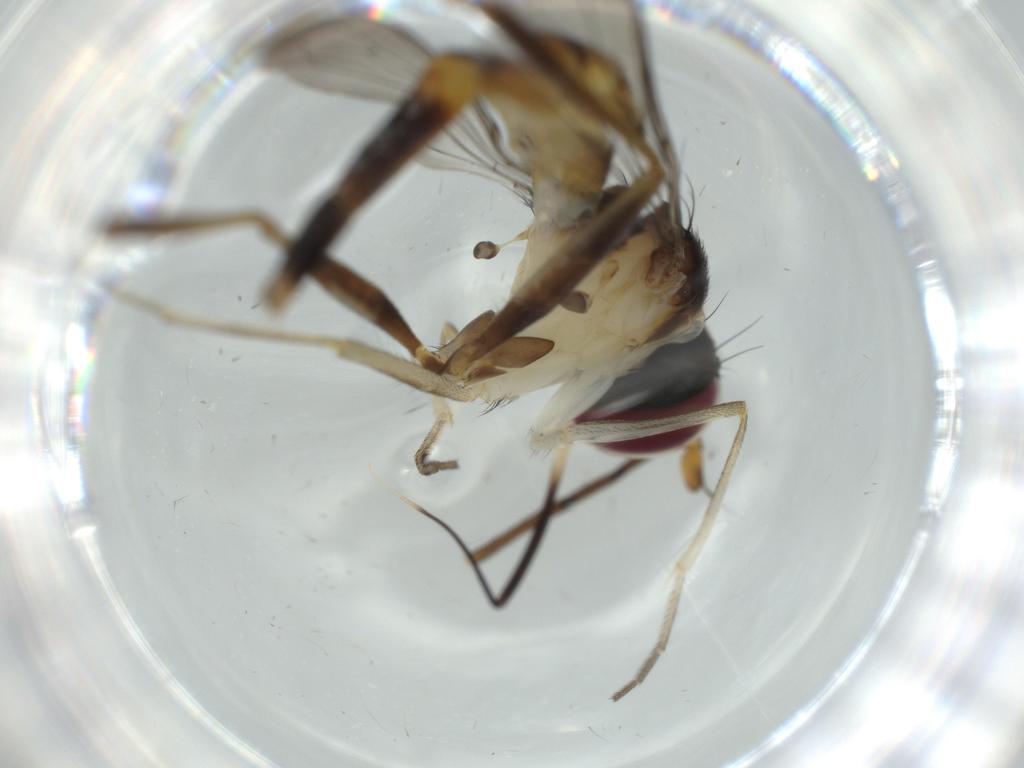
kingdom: Animalia
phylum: Arthropoda
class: Insecta
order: Diptera
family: Conopidae
